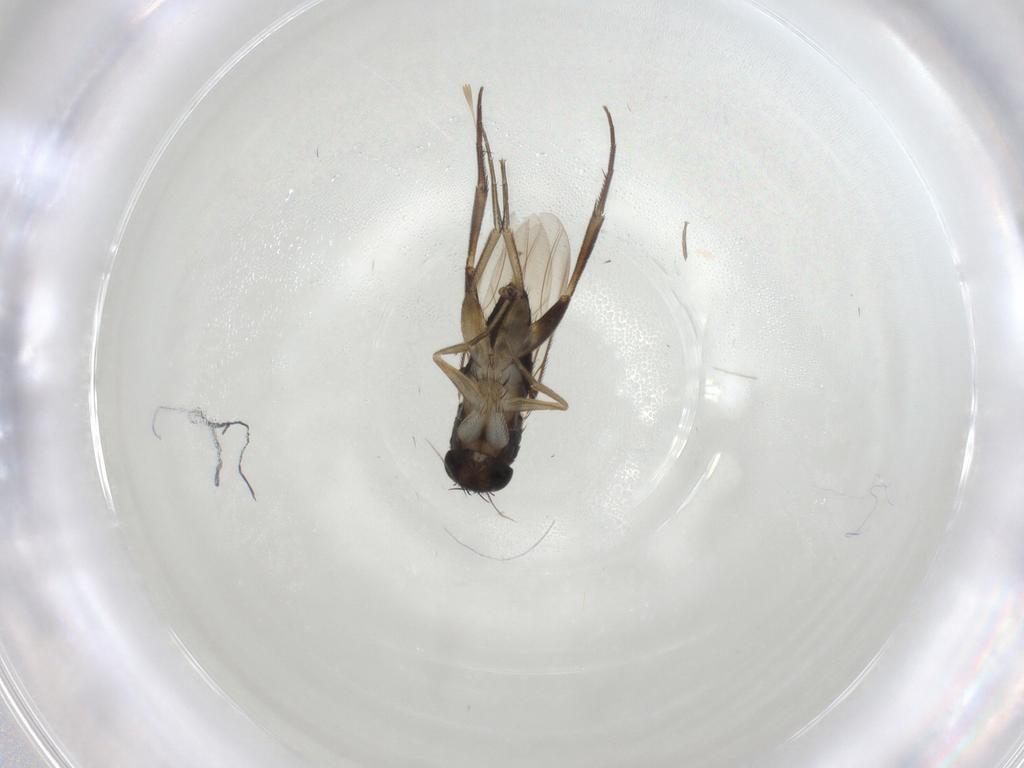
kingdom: Animalia
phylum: Arthropoda
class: Insecta
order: Diptera
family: Phoridae
